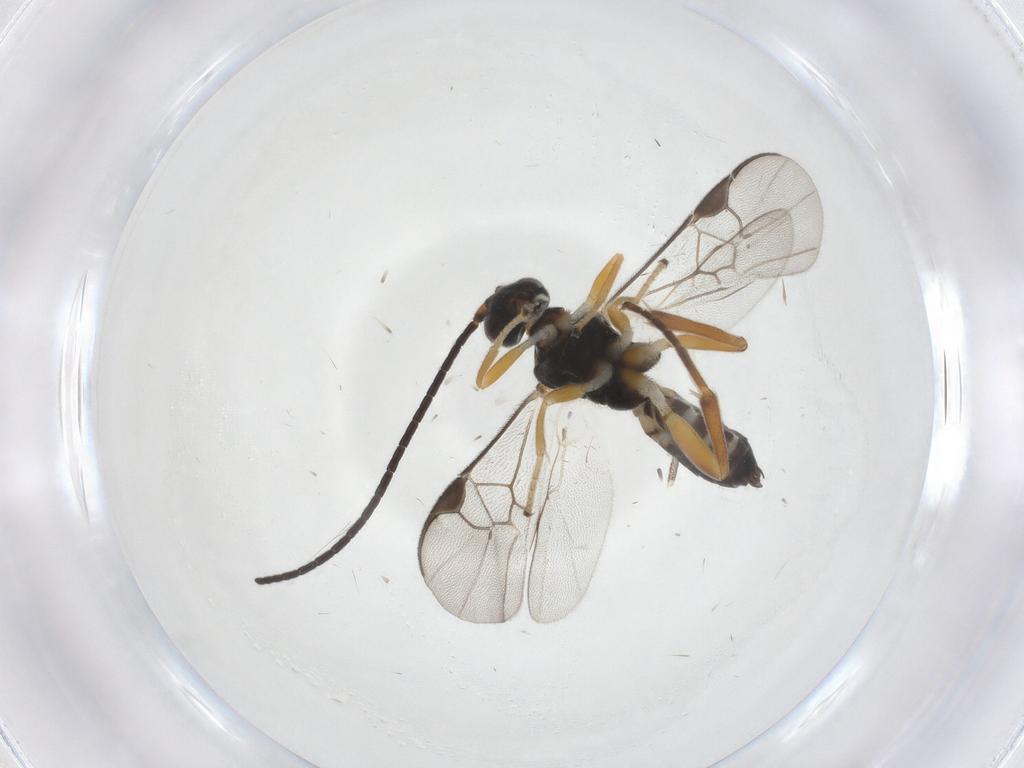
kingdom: Animalia
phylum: Arthropoda
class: Insecta
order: Hymenoptera
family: Braconidae
